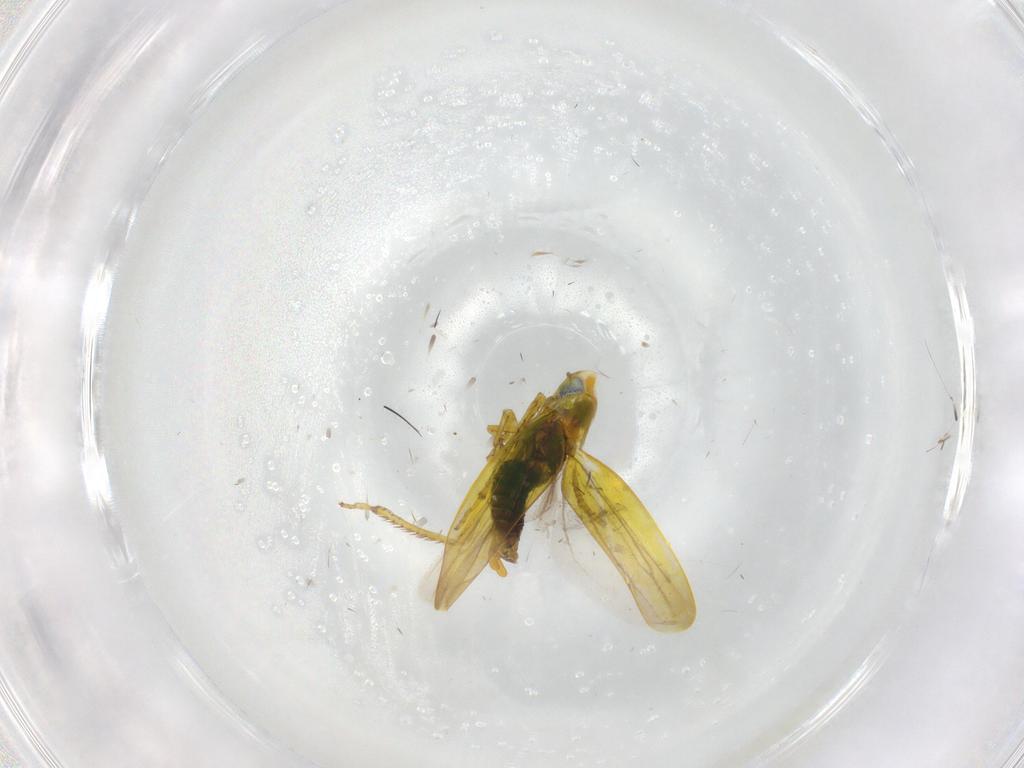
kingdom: Animalia
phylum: Arthropoda
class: Insecta
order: Hemiptera
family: Cicadellidae
